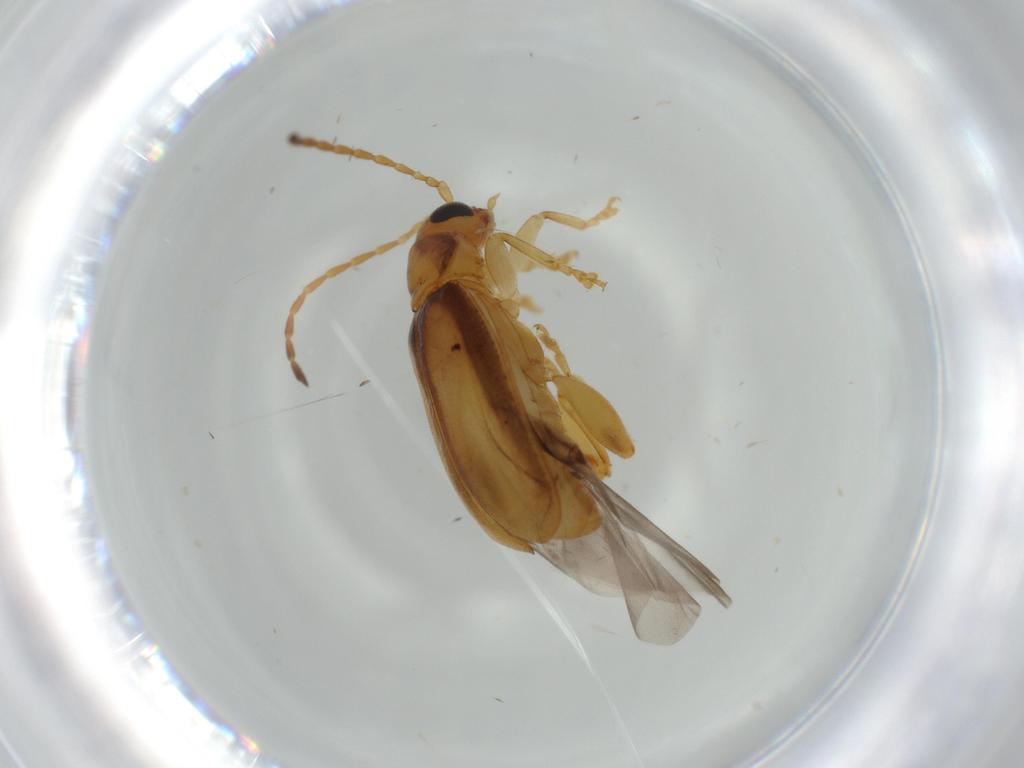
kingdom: Animalia
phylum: Arthropoda
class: Insecta
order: Coleoptera
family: Chrysomelidae
